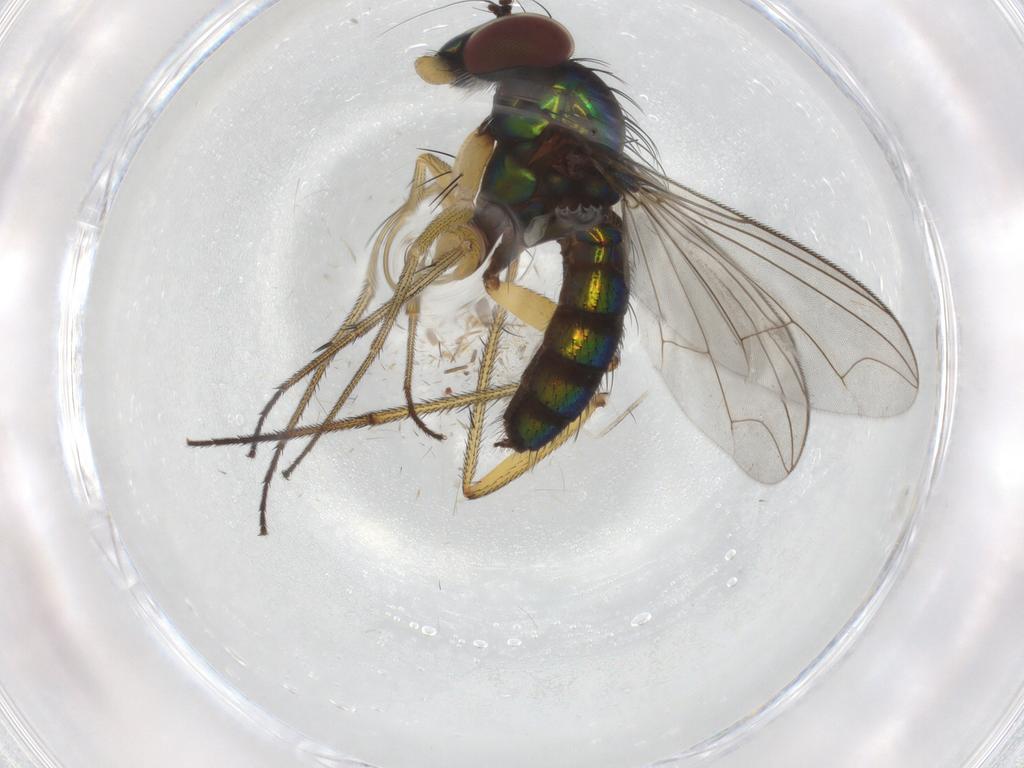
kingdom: Animalia
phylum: Arthropoda
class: Insecta
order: Diptera
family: Dolichopodidae
